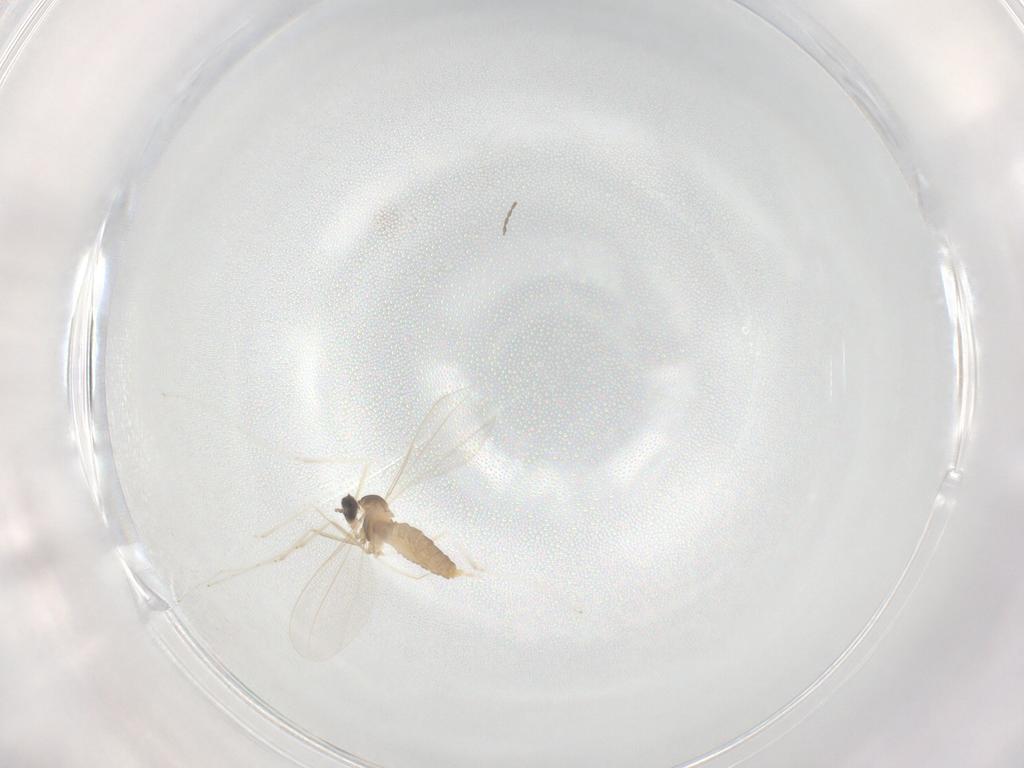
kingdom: Animalia
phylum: Arthropoda
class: Insecta
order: Diptera
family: Cecidomyiidae
